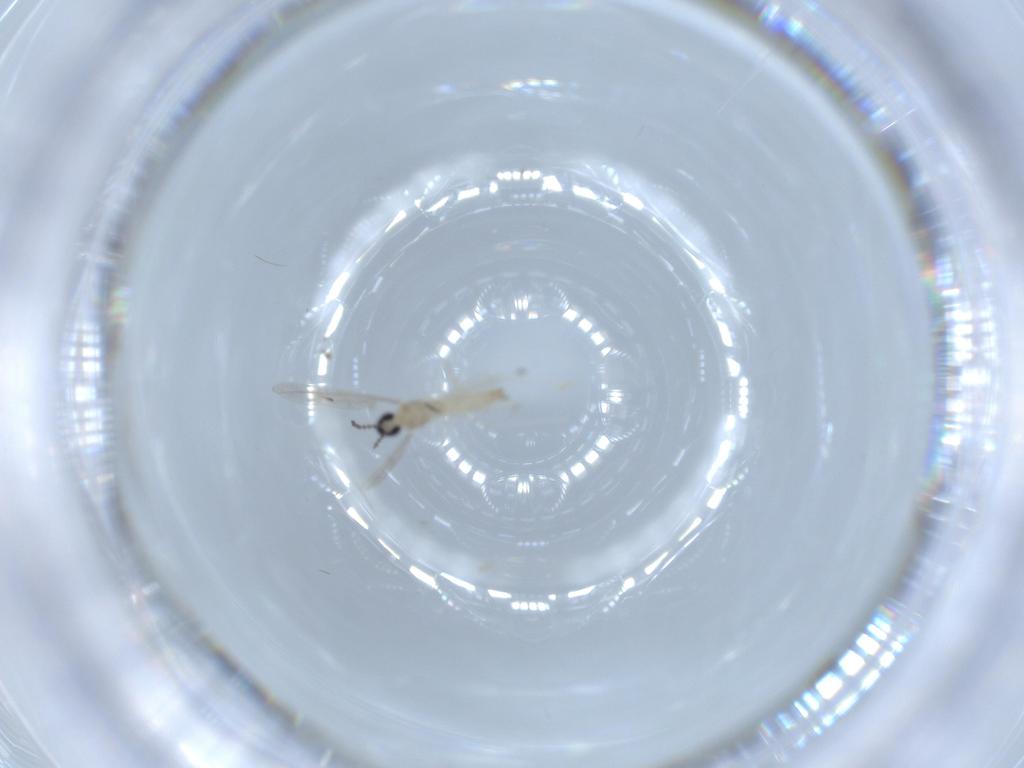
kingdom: Animalia
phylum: Arthropoda
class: Insecta
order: Diptera
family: Cecidomyiidae
